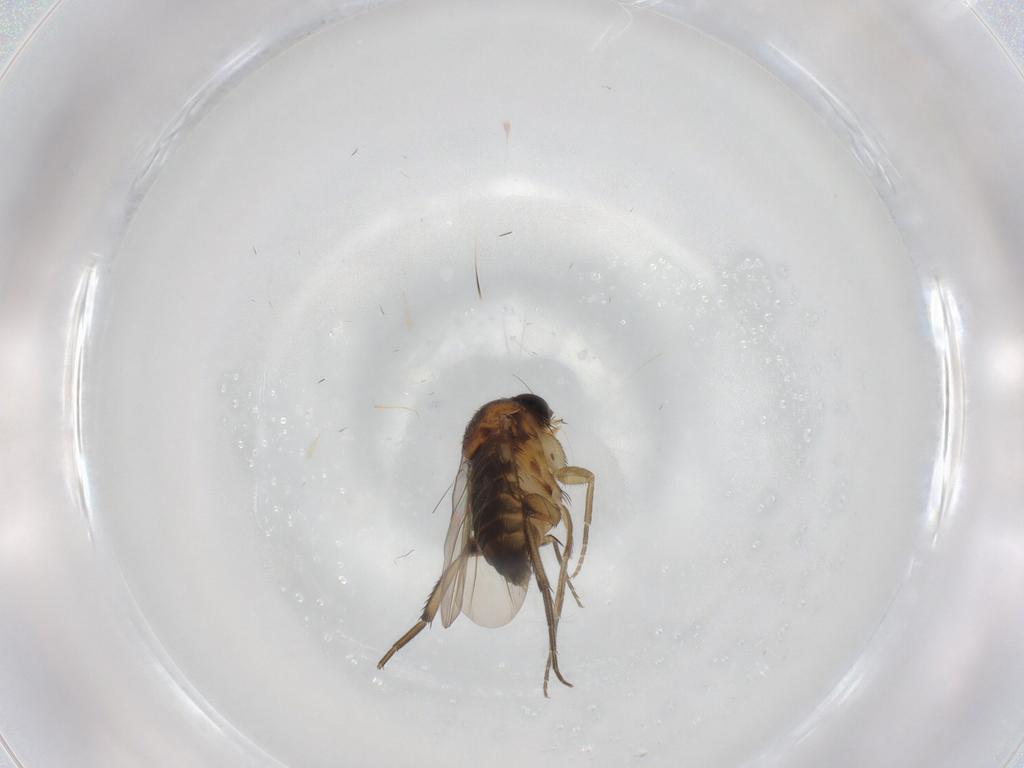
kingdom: Animalia
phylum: Arthropoda
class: Insecta
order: Diptera
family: Phoridae
